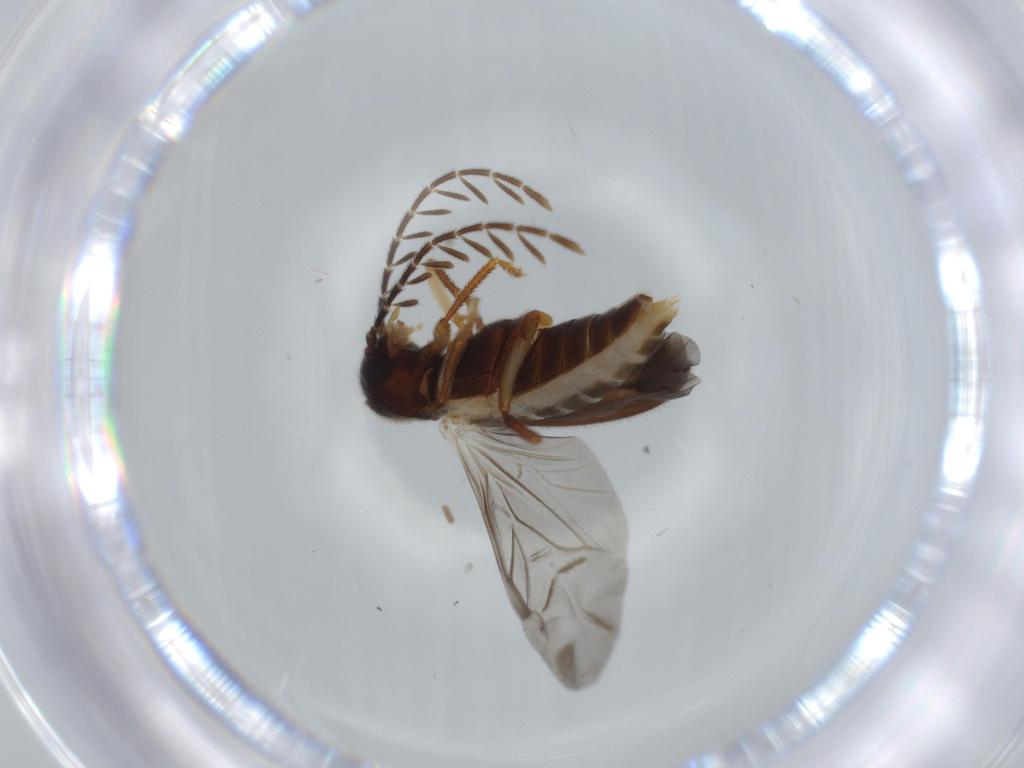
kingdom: Animalia
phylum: Arthropoda
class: Insecta
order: Coleoptera
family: Ptilodactylidae
